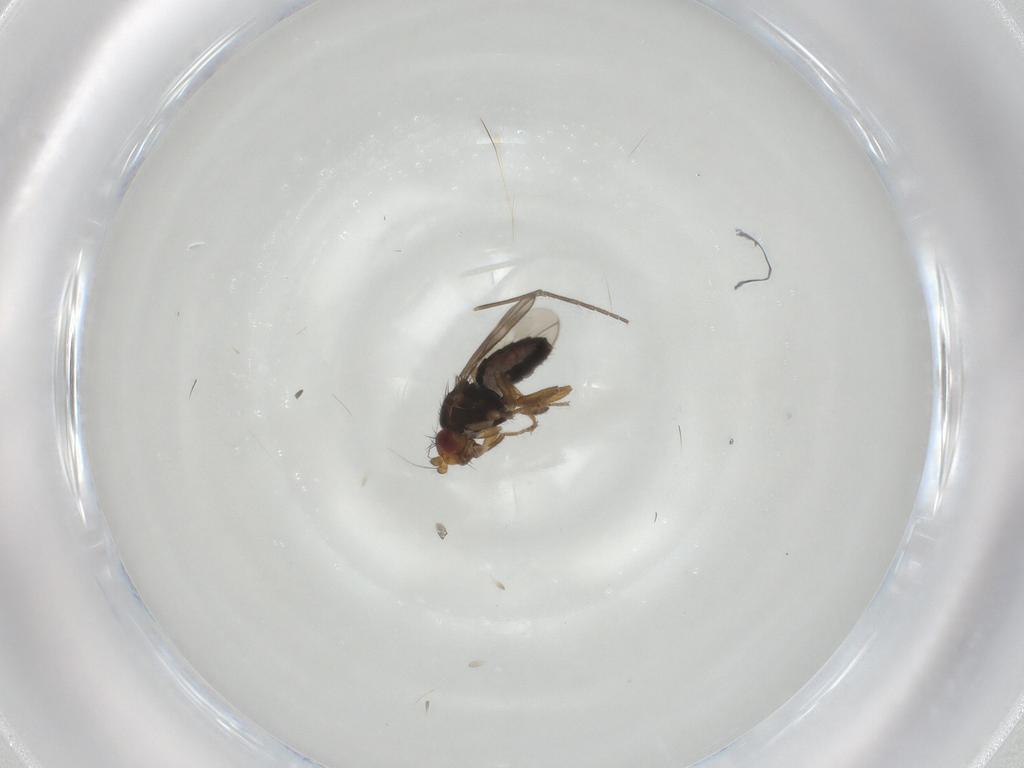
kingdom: Animalia
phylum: Arthropoda
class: Insecta
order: Diptera
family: Sphaeroceridae
